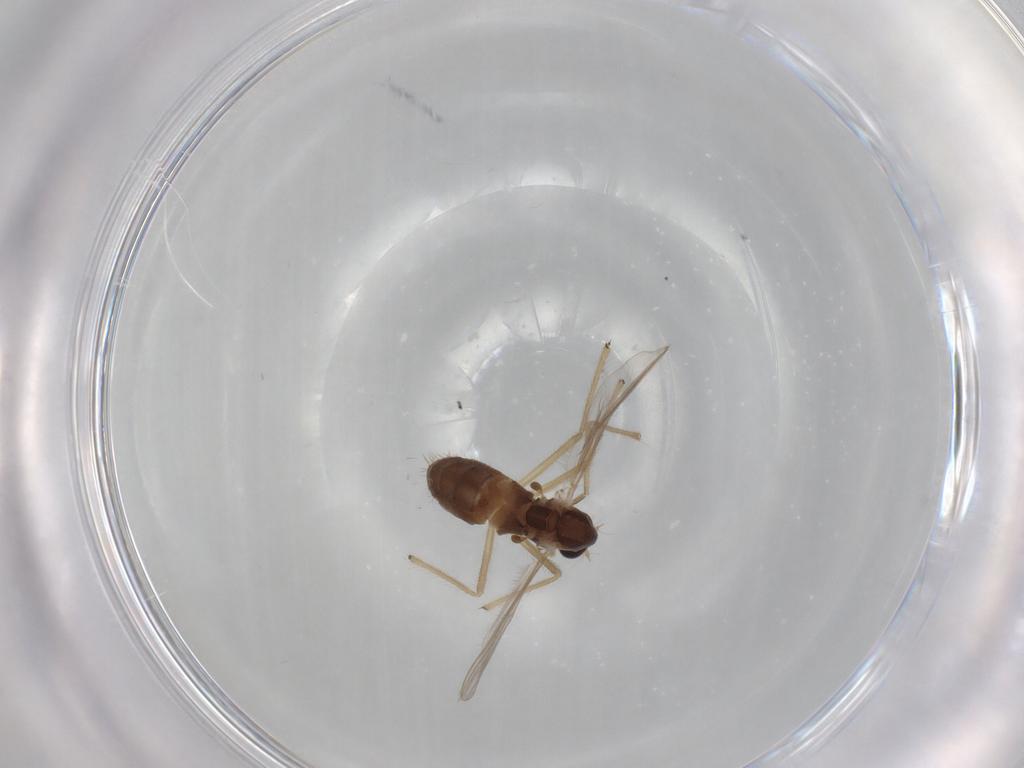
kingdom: Animalia
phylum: Arthropoda
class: Insecta
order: Diptera
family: Chironomidae
